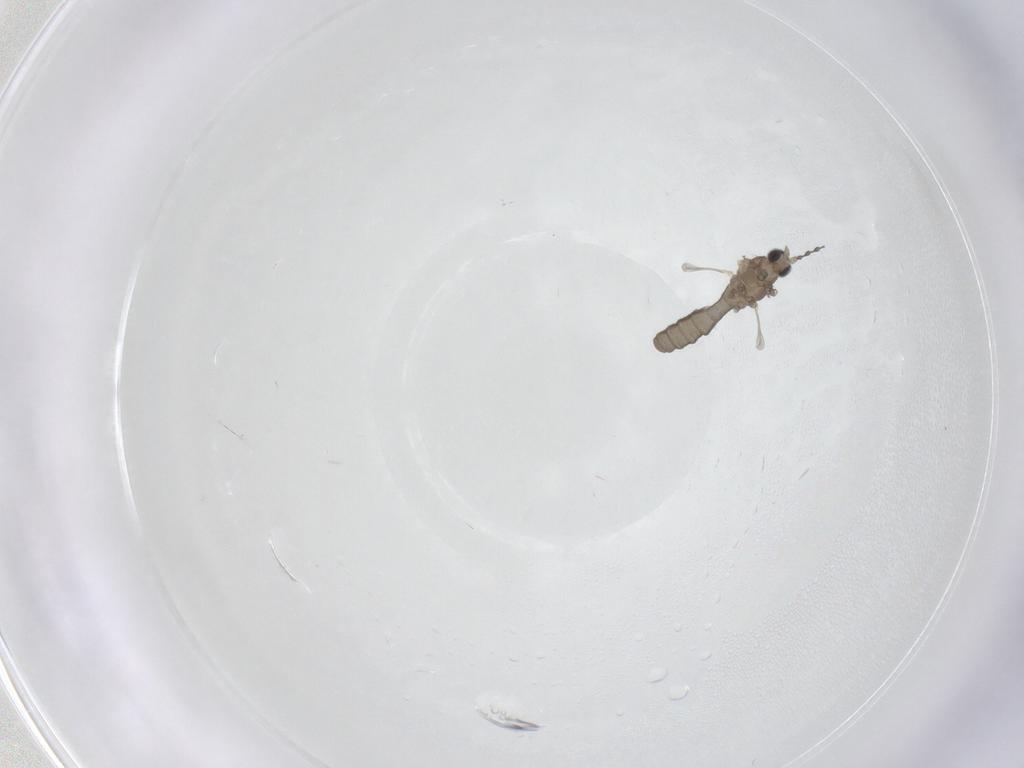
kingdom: Animalia
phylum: Arthropoda
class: Insecta
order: Diptera
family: Cecidomyiidae
